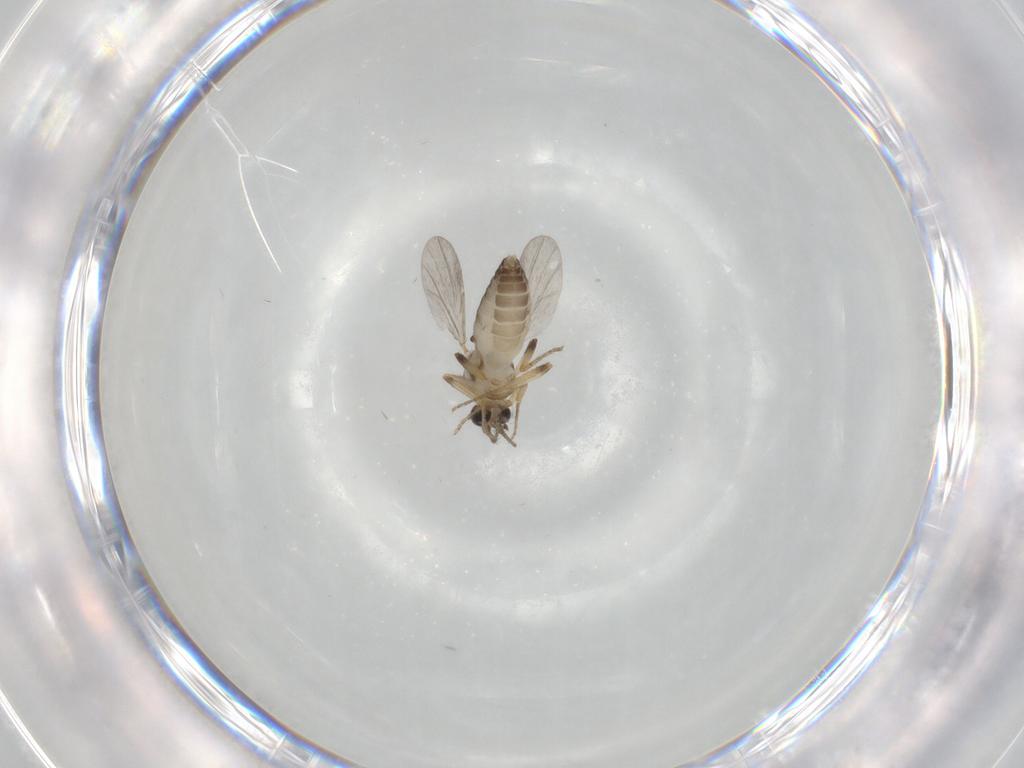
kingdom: Animalia
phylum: Arthropoda
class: Insecta
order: Diptera
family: Ceratopogonidae
